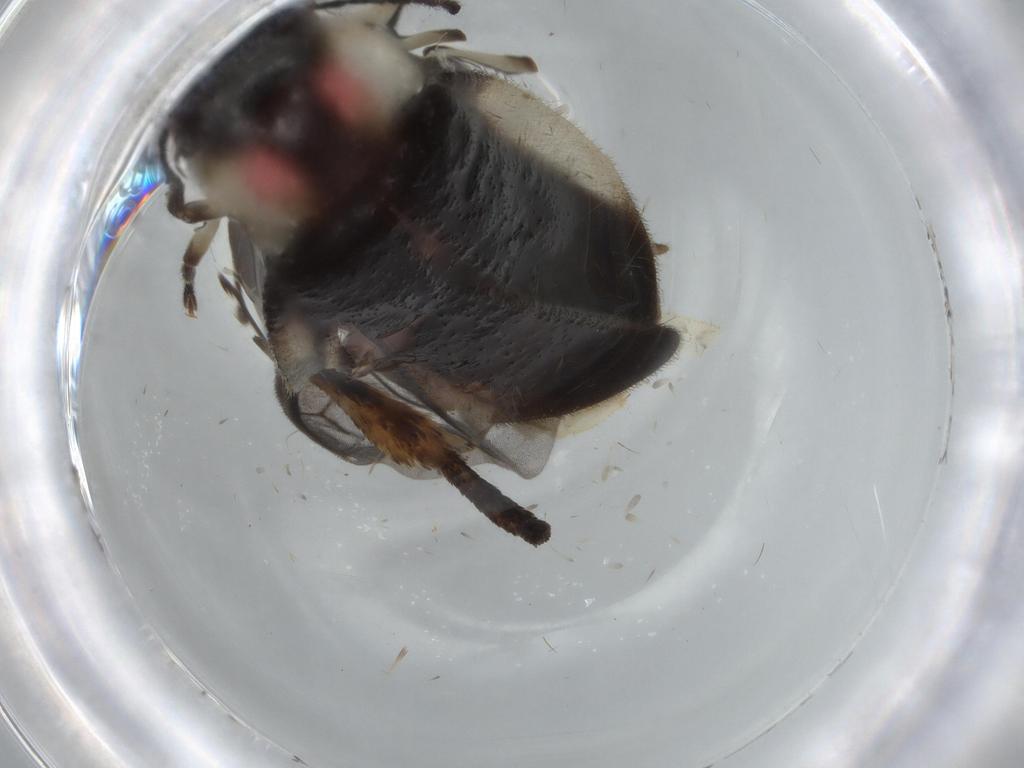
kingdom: Animalia
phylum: Arthropoda
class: Insecta
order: Coleoptera
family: Lampyridae
